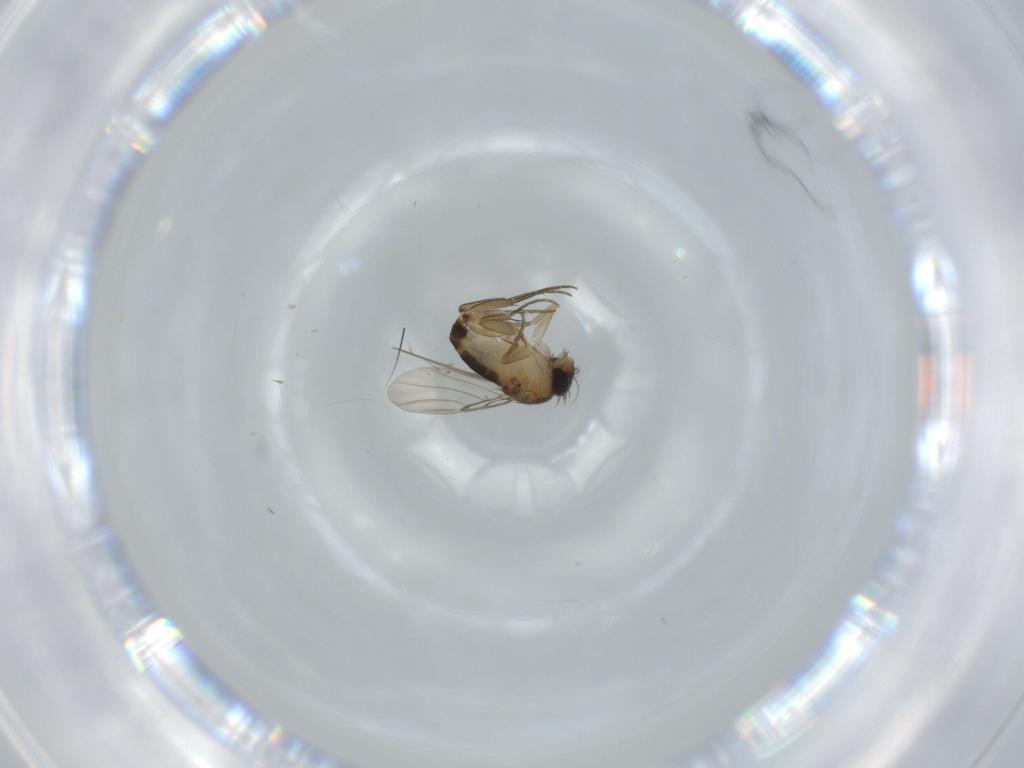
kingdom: Animalia
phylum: Arthropoda
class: Insecta
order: Diptera
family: Phoridae
